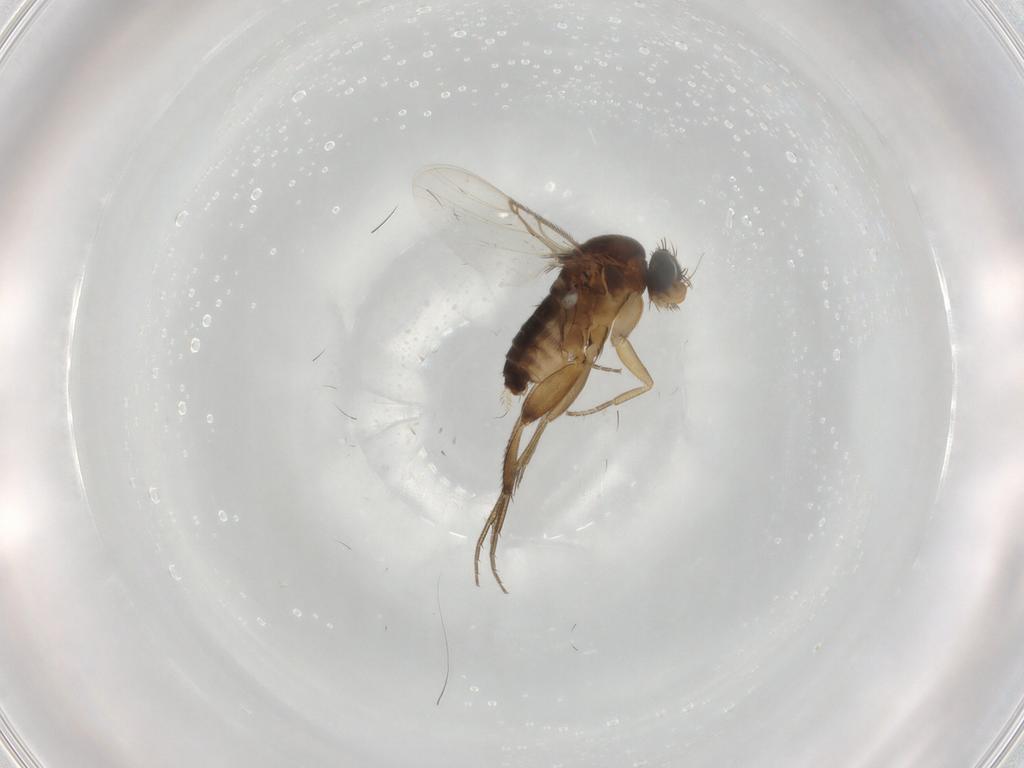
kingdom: Animalia
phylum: Arthropoda
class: Insecta
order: Diptera
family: Phoridae
